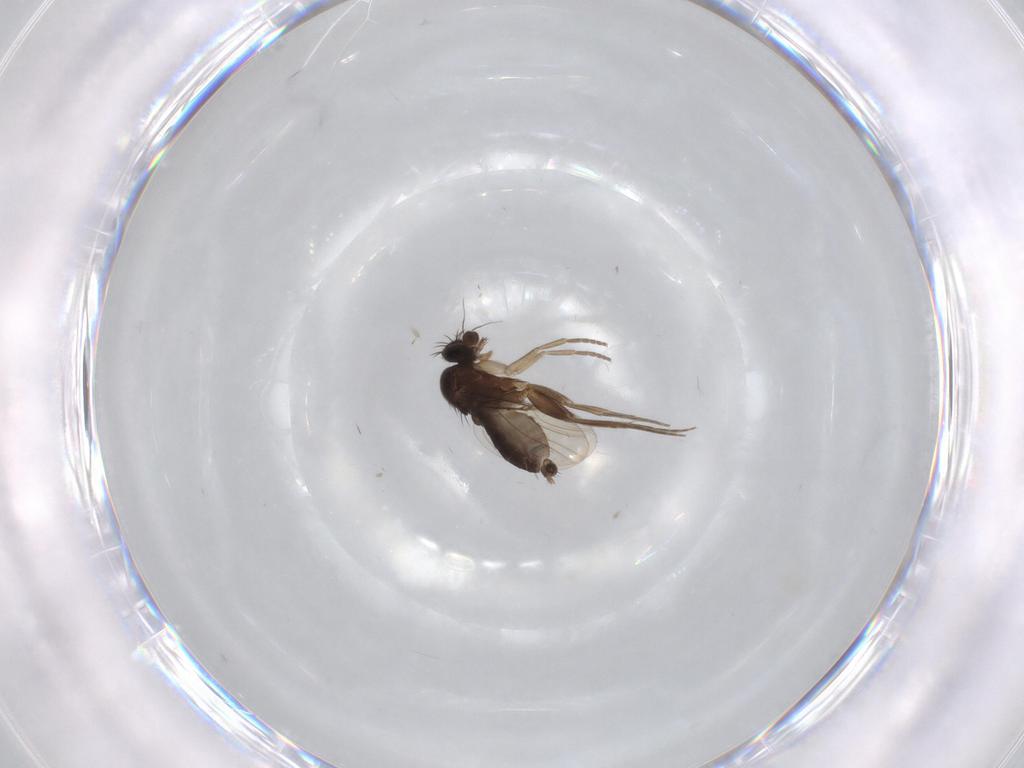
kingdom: Animalia
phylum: Arthropoda
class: Insecta
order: Diptera
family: Phoridae
